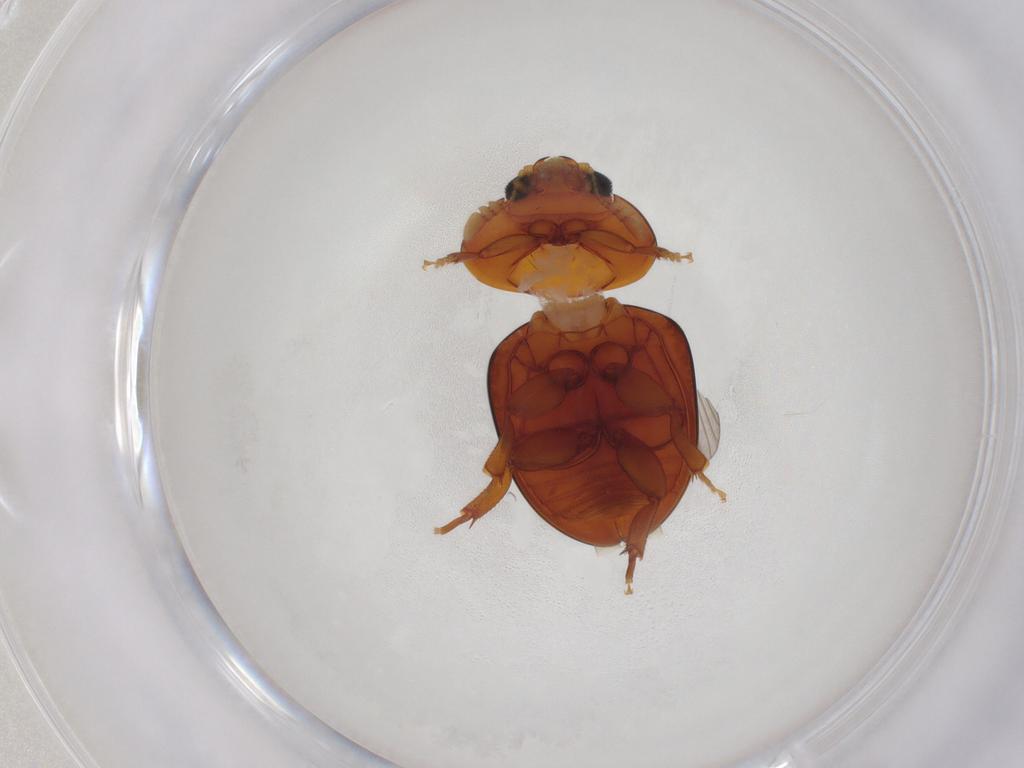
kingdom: Animalia
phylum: Arthropoda
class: Insecta
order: Coleoptera
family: Phalacridae
